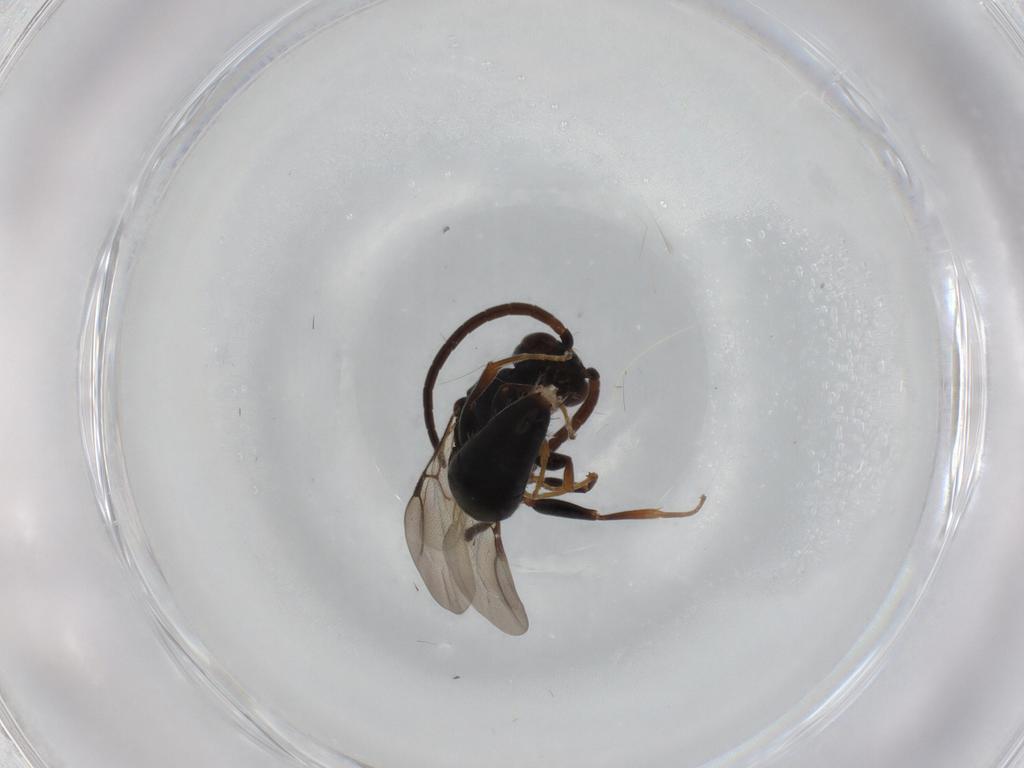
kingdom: Animalia
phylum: Arthropoda
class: Insecta
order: Hymenoptera
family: Bethylidae
